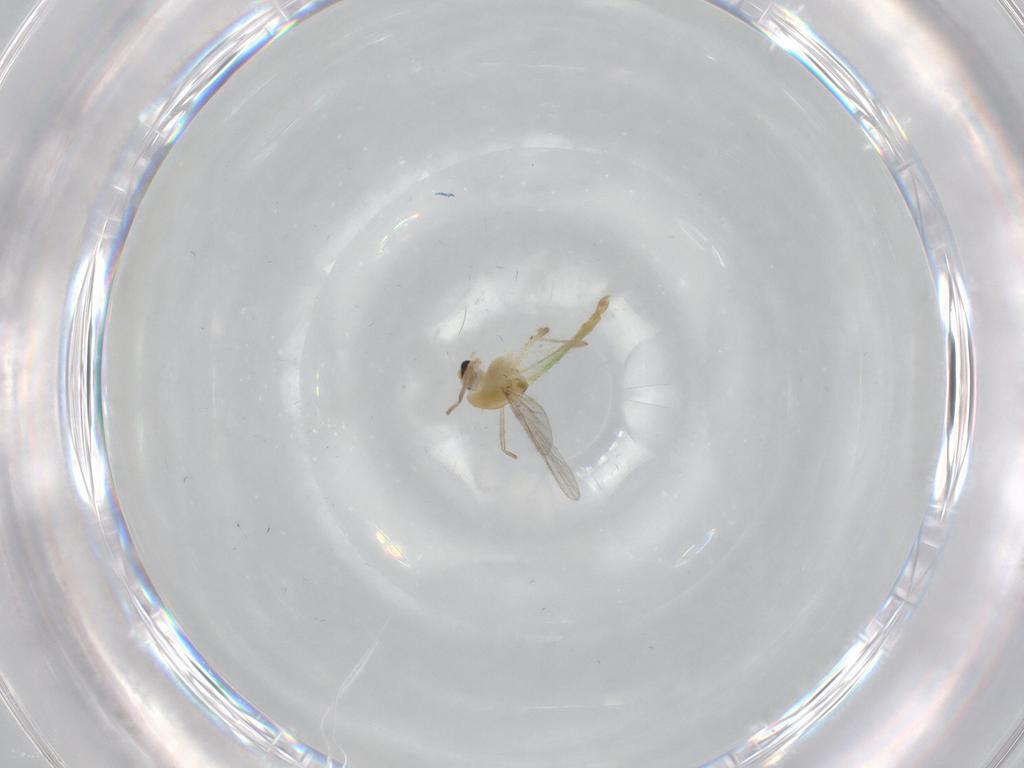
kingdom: Animalia
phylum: Arthropoda
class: Insecta
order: Diptera
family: Chironomidae
